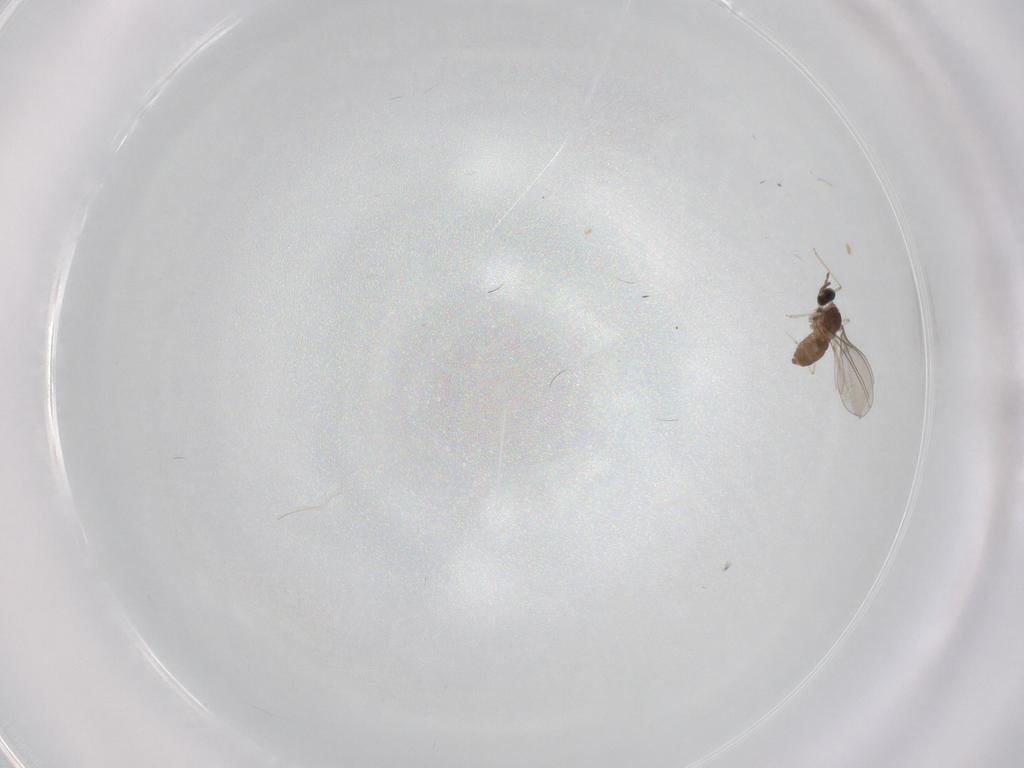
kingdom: Animalia
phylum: Arthropoda
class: Insecta
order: Diptera
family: Cecidomyiidae
